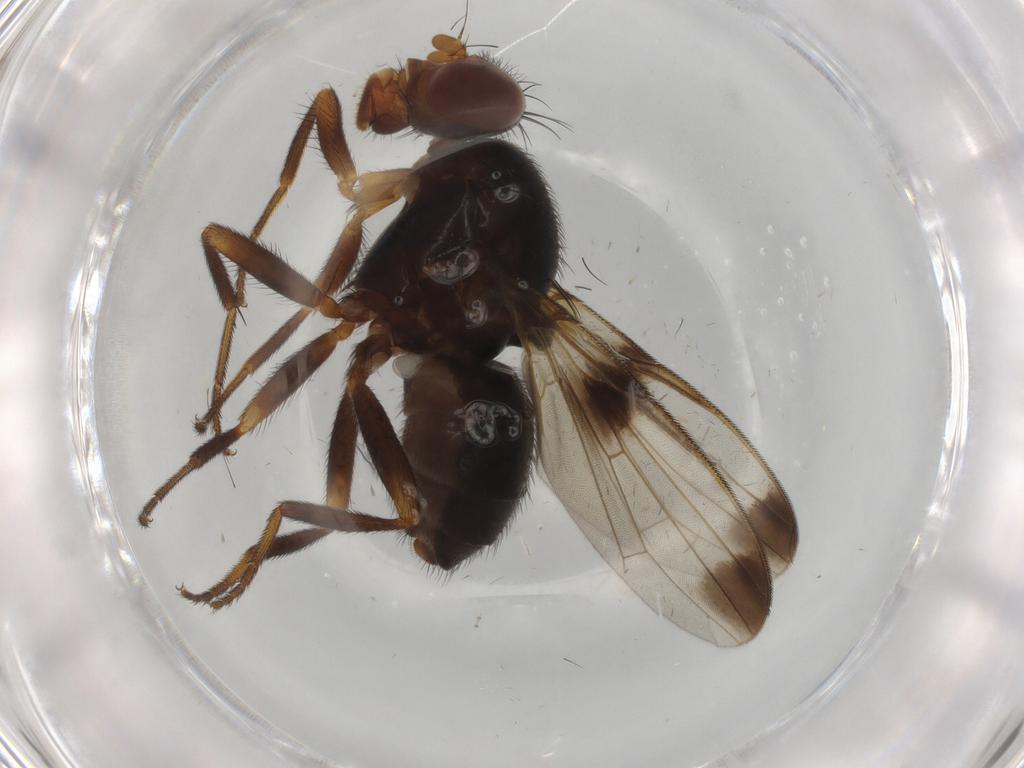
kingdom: Animalia
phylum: Arthropoda
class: Insecta
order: Diptera
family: Ulidiidae
